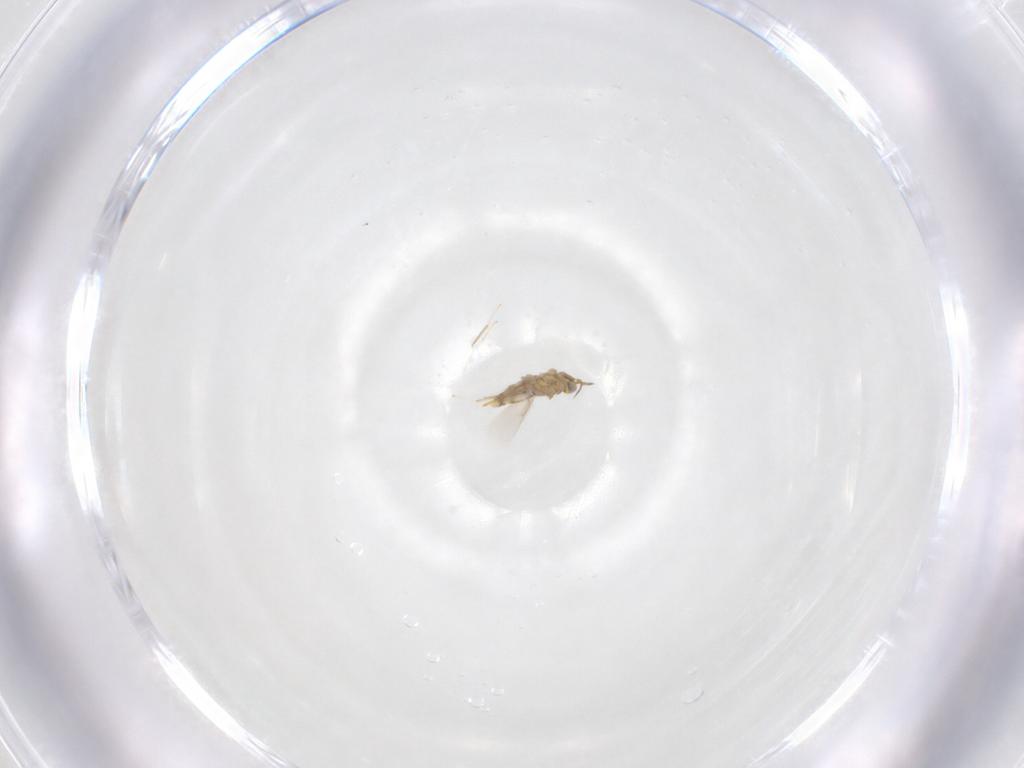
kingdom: Animalia
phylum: Arthropoda
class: Insecta
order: Hymenoptera
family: Aphelinidae
